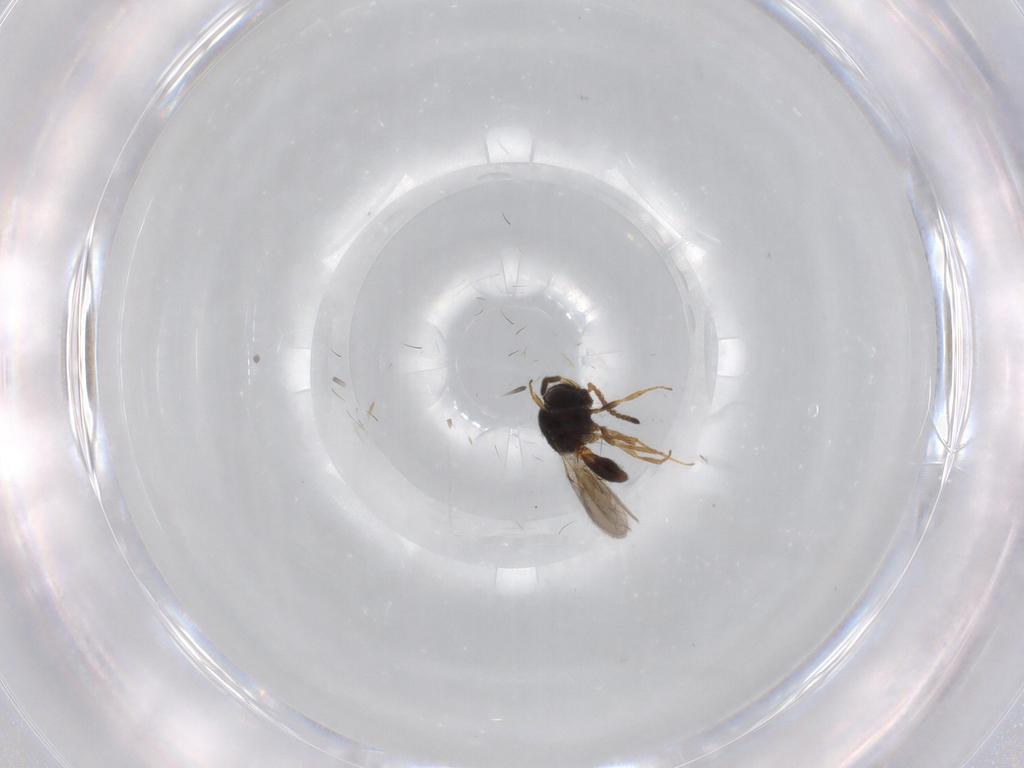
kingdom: Animalia
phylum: Arthropoda
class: Insecta
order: Hymenoptera
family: Scelionidae
